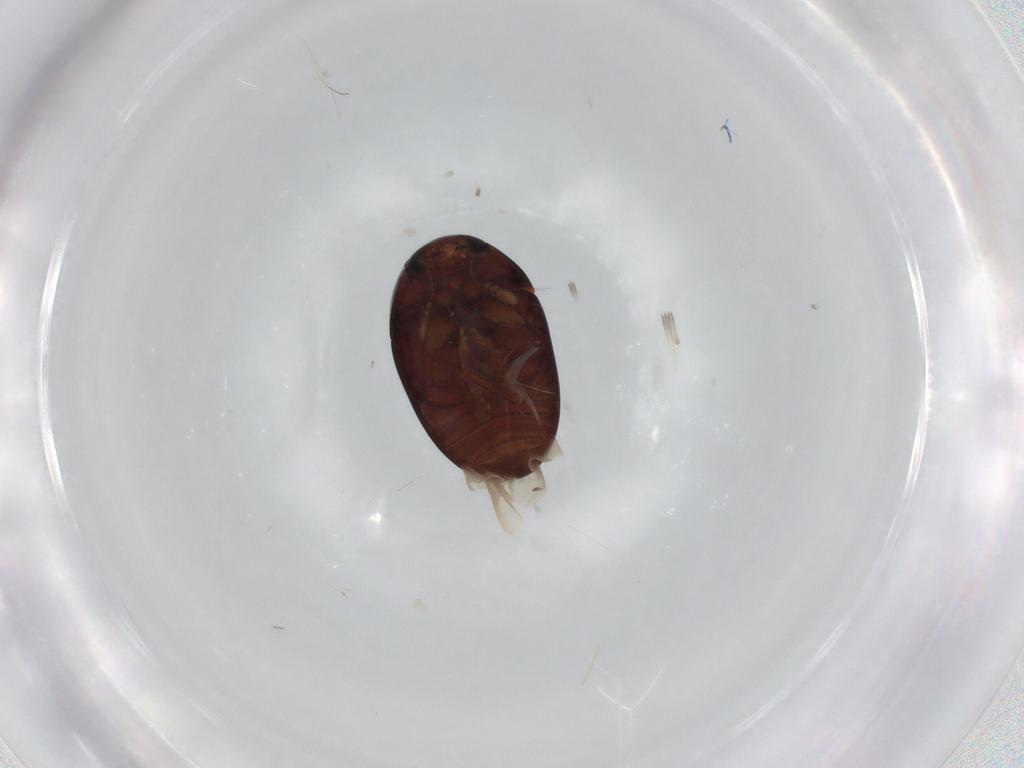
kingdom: Animalia
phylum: Arthropoda
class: Insecta
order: Coleoptera
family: Phalacridae
